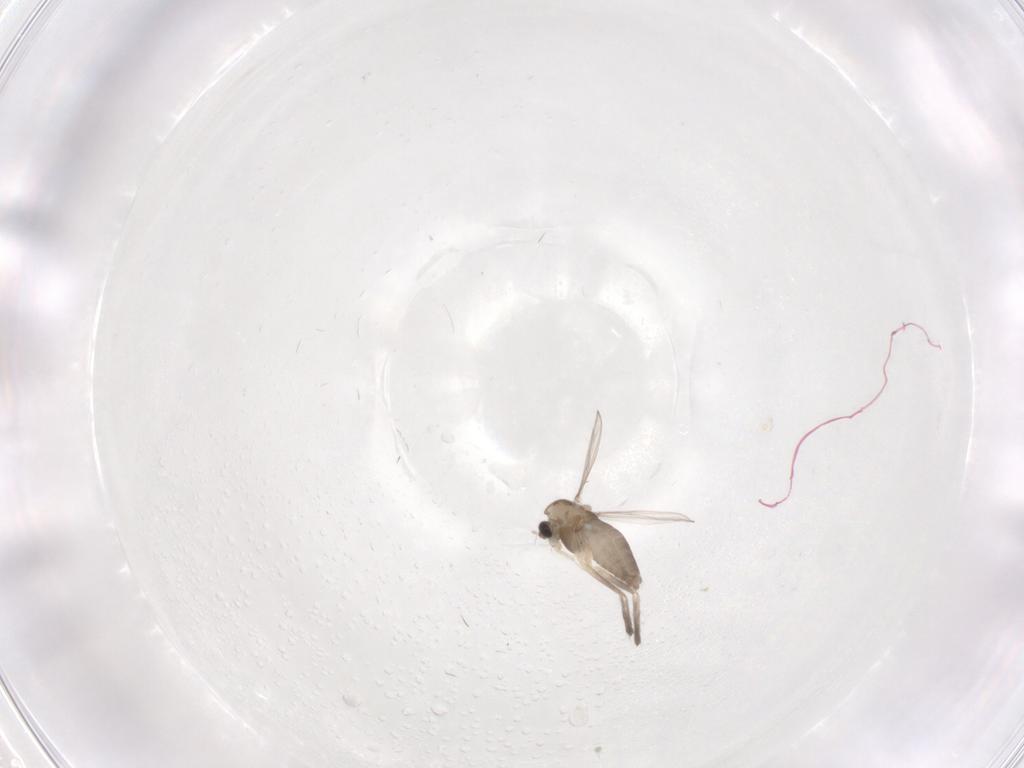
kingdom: Animalia
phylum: Arthropoda
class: Insecta
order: Diptera
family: Chironomidae
